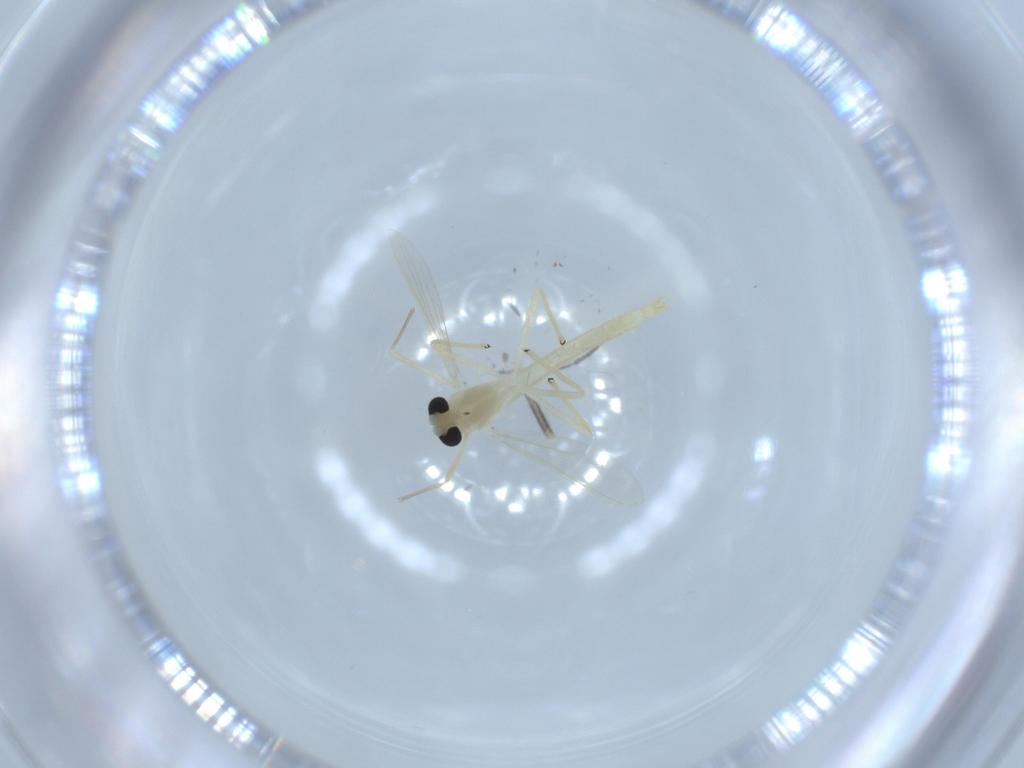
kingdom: Animalia
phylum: Arthropoda
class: Insecta
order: Diptera
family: Chironomidae
